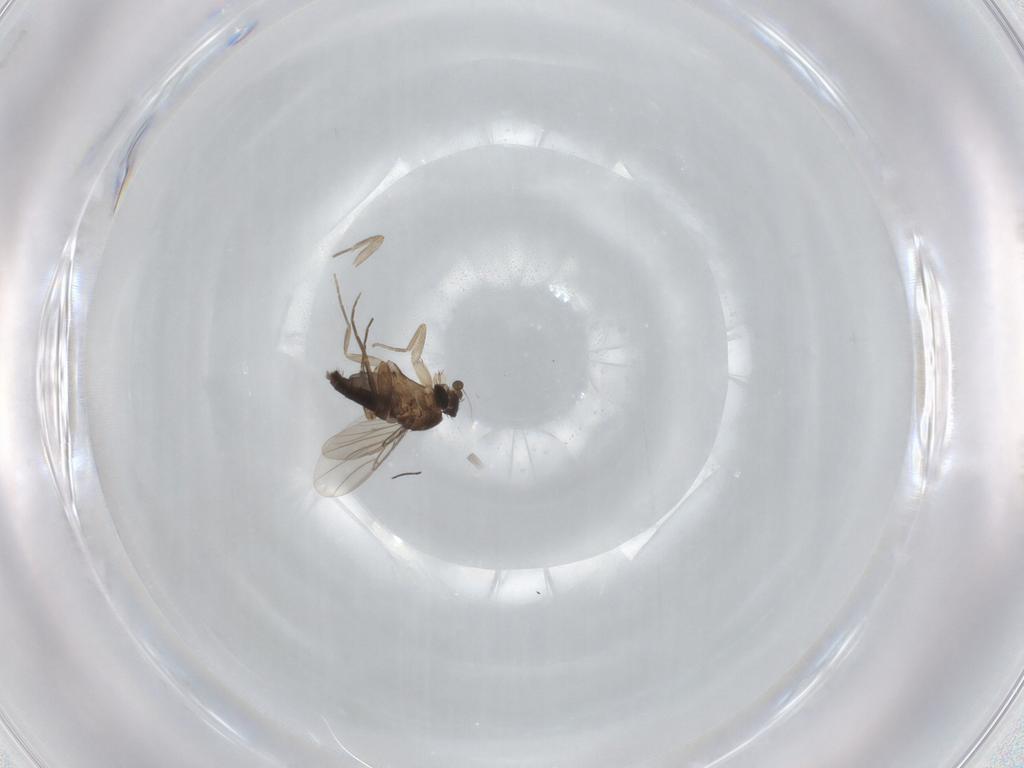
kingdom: Animalia
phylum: Arthropoda
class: Insecta
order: Diptera
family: Phoridae
